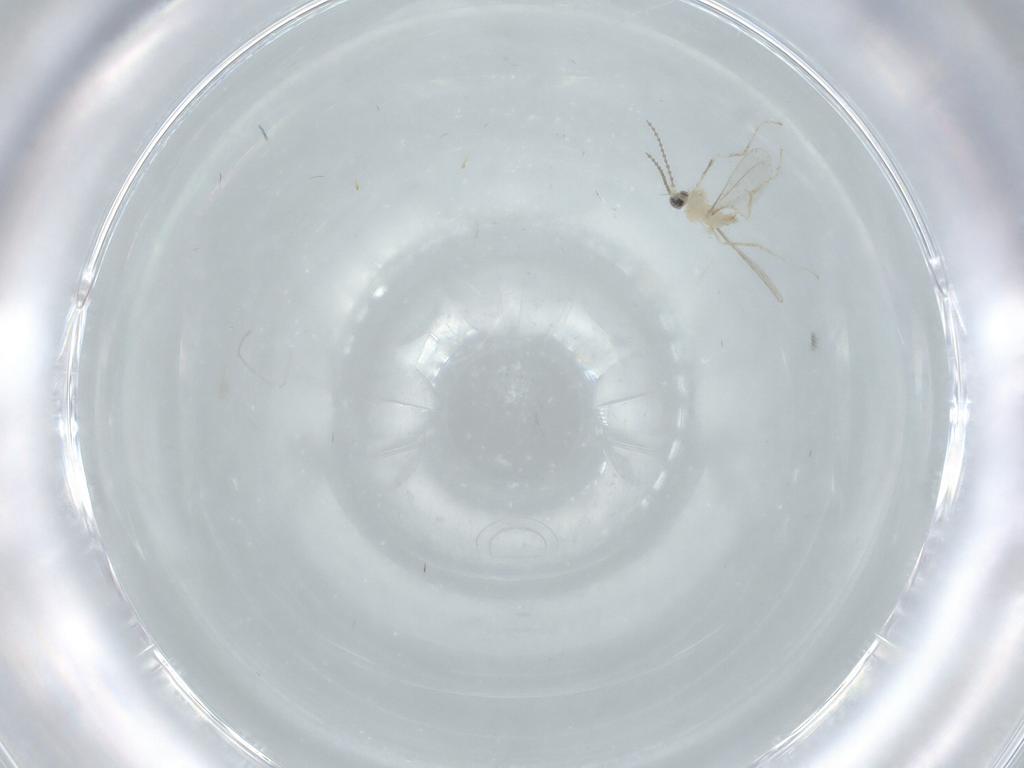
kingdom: Animalia
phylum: Arthropoda
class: Insecta
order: Diptera
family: Cecidomyiidae
